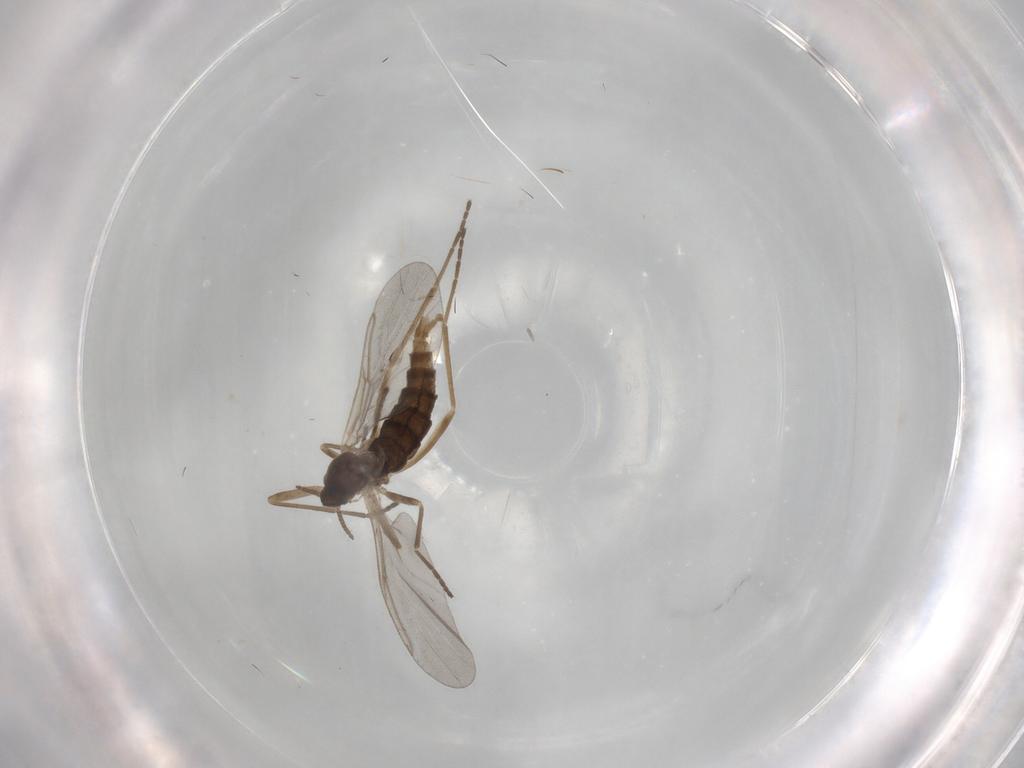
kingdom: Animalia
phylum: Arthropoda
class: Insecta
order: Diptera
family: Cecidomyiidae
